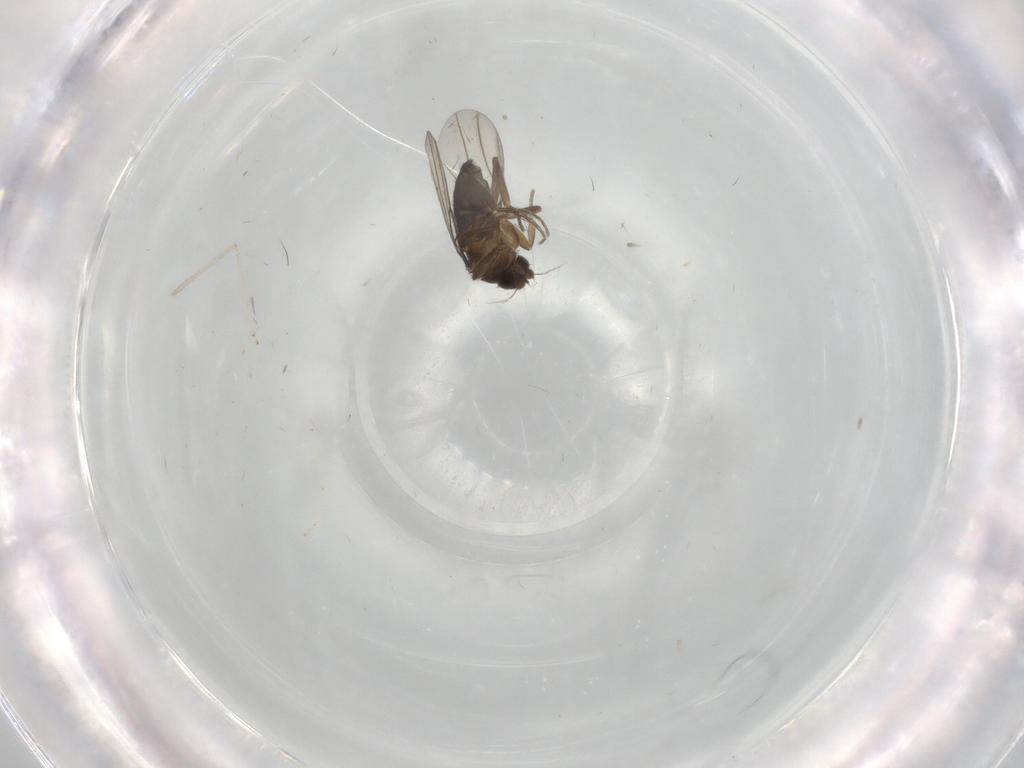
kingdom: Animalia
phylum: Arthropoda
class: Insecta
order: Diptera
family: Cecidomyiidae
